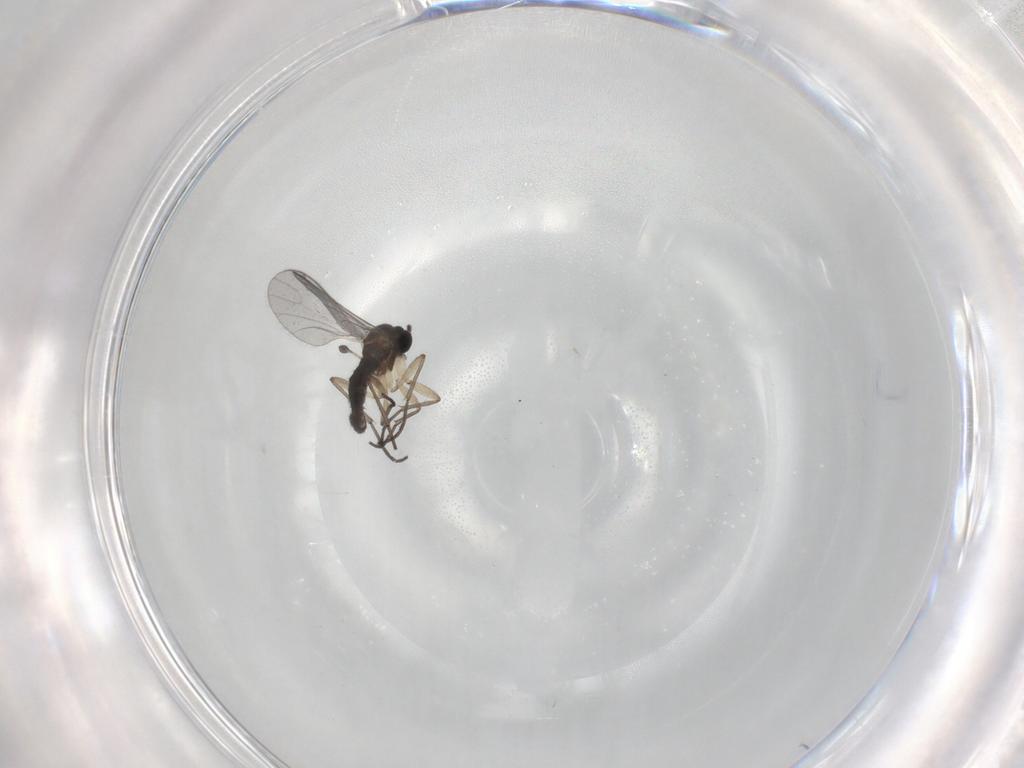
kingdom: Animalia
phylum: Arthropoda
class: Insecta
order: Diptera
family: Sciaridae
